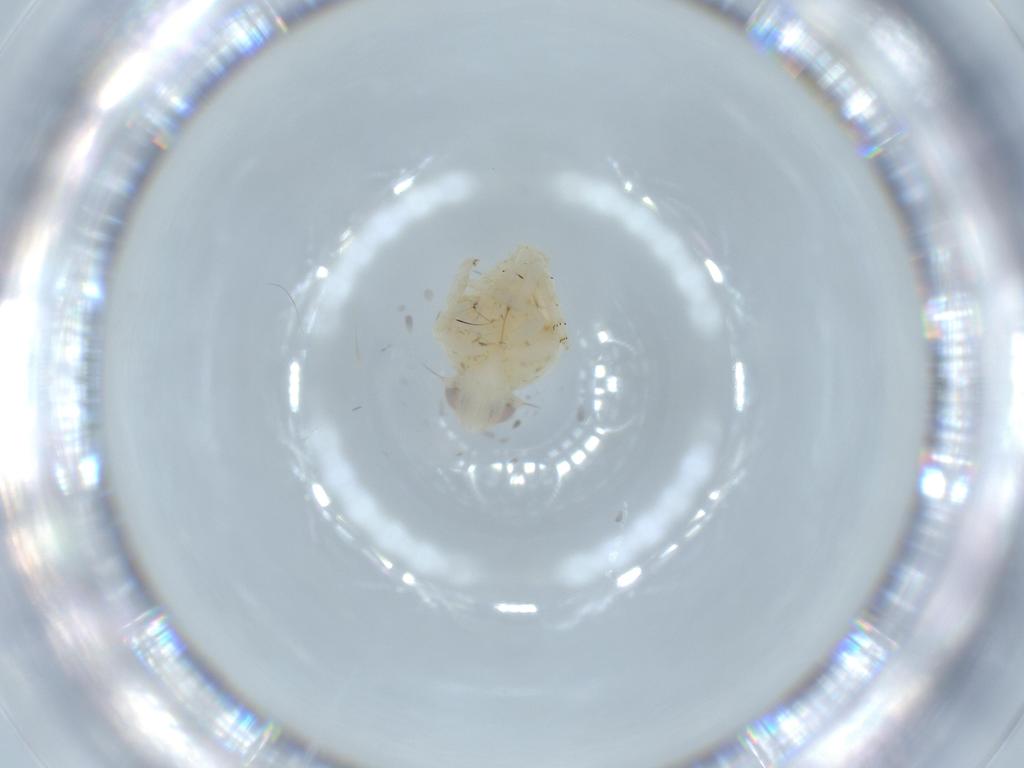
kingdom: Animalia
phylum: Arthropoda
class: Insecta
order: Hemiptera
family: Nogodinidae
